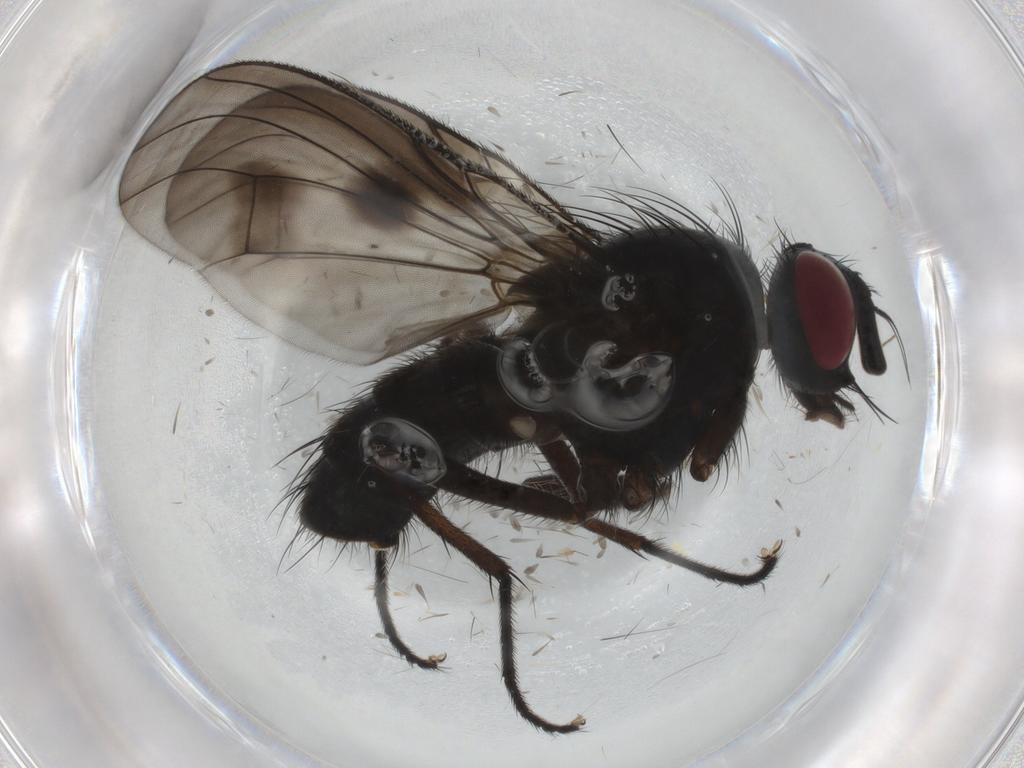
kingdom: Animalia
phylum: Arthropoda
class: Insecta
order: Diptera
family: Muscidae
